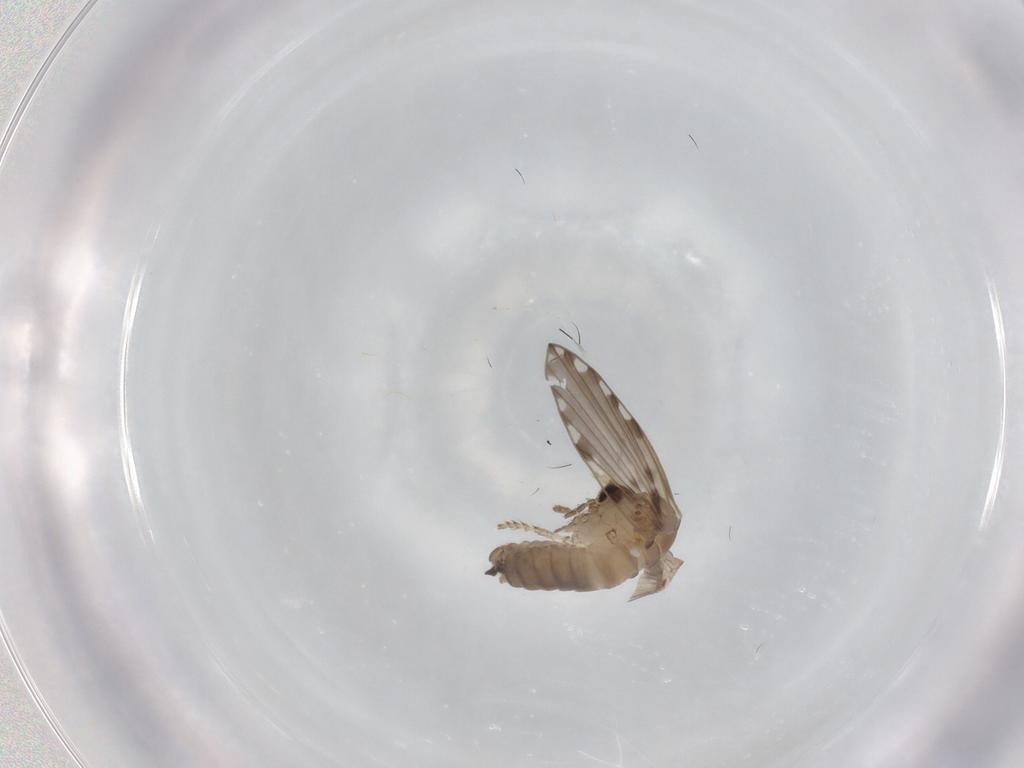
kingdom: Animalia
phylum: Arthropoda
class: Insecta
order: Diptera
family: Psychodidae
